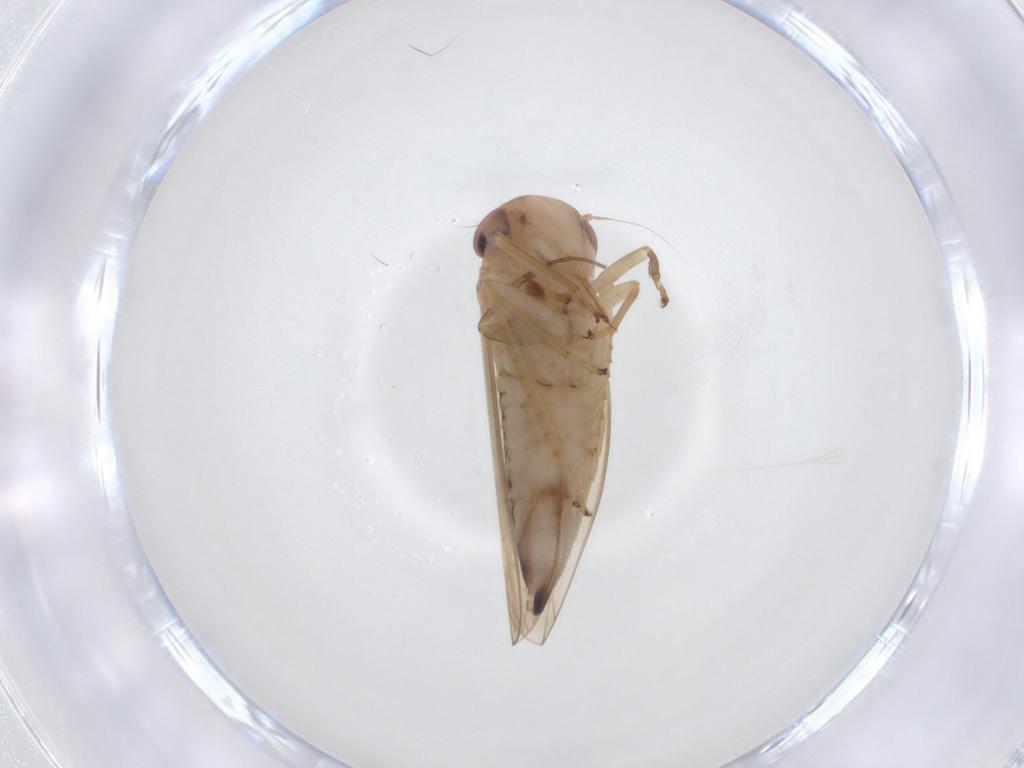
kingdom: Animalia
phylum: Arthropoda
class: Insecta
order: Hemiptera
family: Cicadellidae
